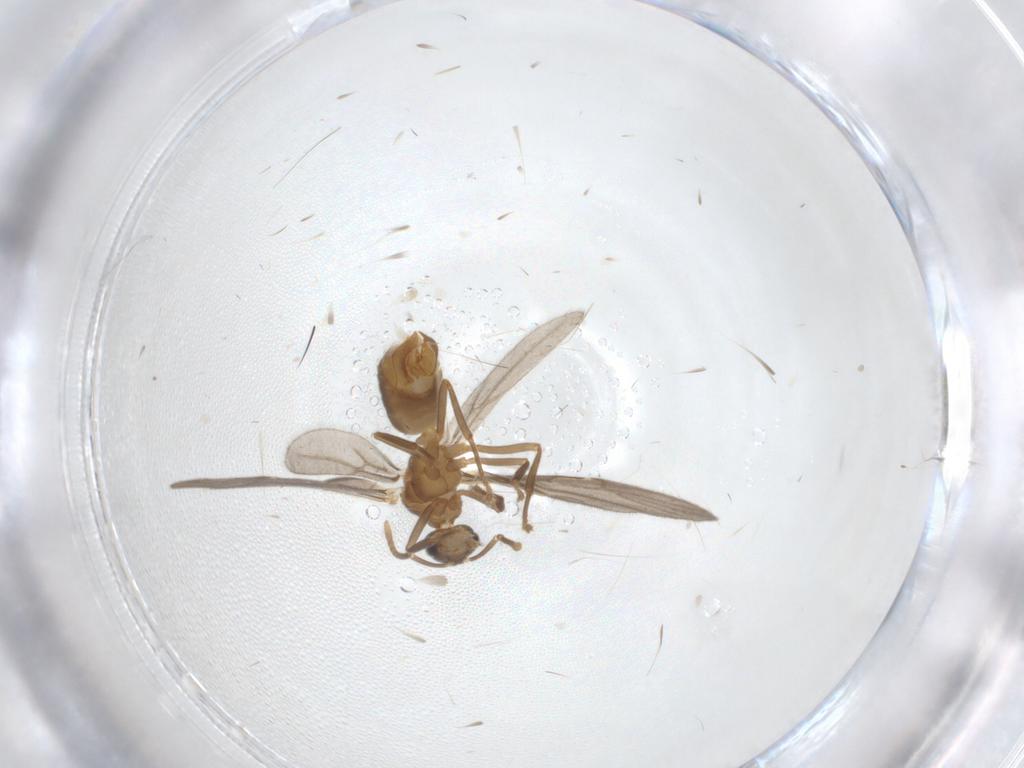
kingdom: Animalia
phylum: Arthropoda
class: Insecta
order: Hymenoptera
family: Formicidae
